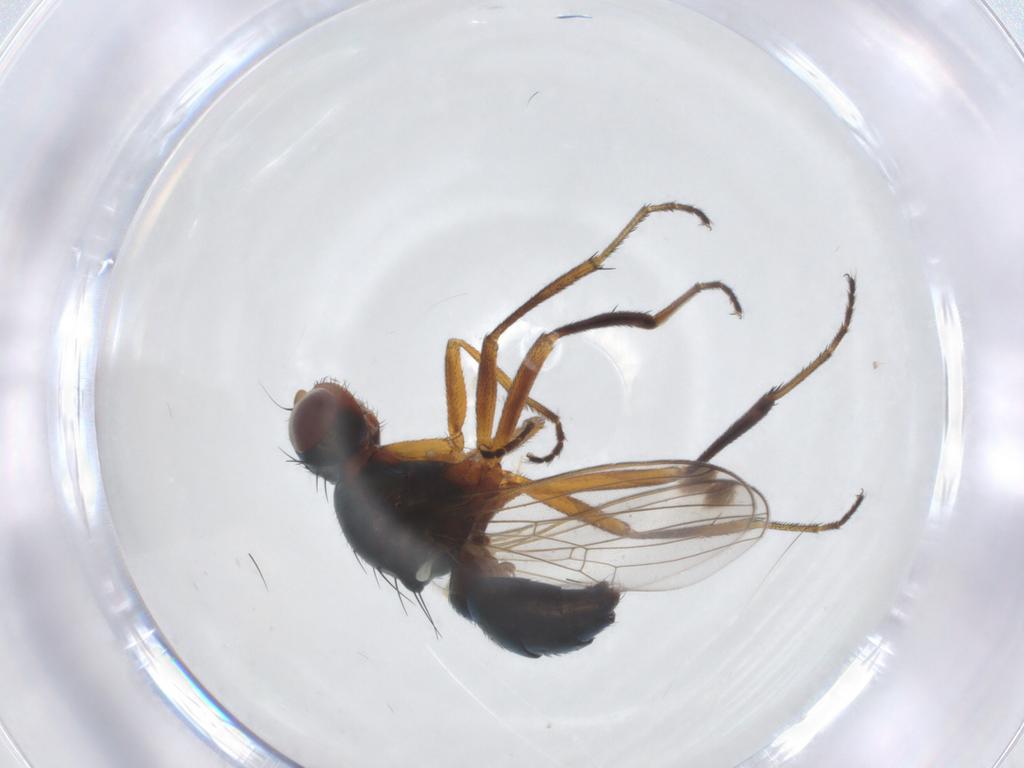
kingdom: Animalia
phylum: Arthropoda
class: Insecta
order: Diptera
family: Sepsidae
